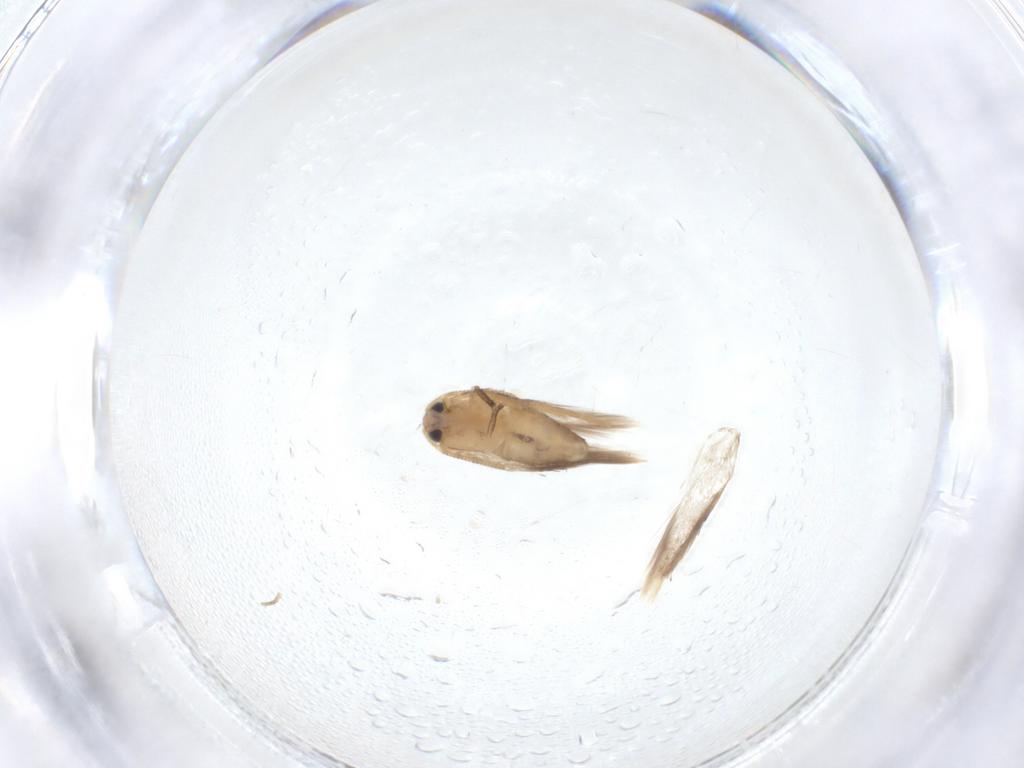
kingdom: Animalia
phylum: Arthropoda
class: Insecta
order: Lepidoptera
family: Nepticulidae
